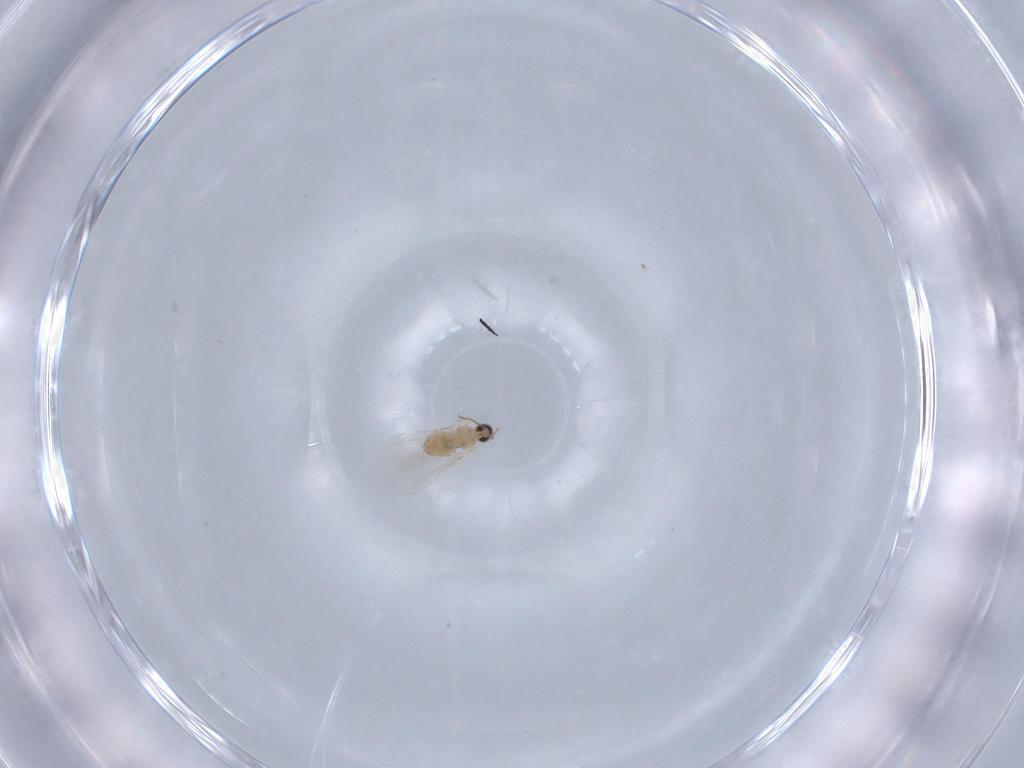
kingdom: Animalia
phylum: Arthropoda
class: Insecta
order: Diptera
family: Cecidomyiidae
